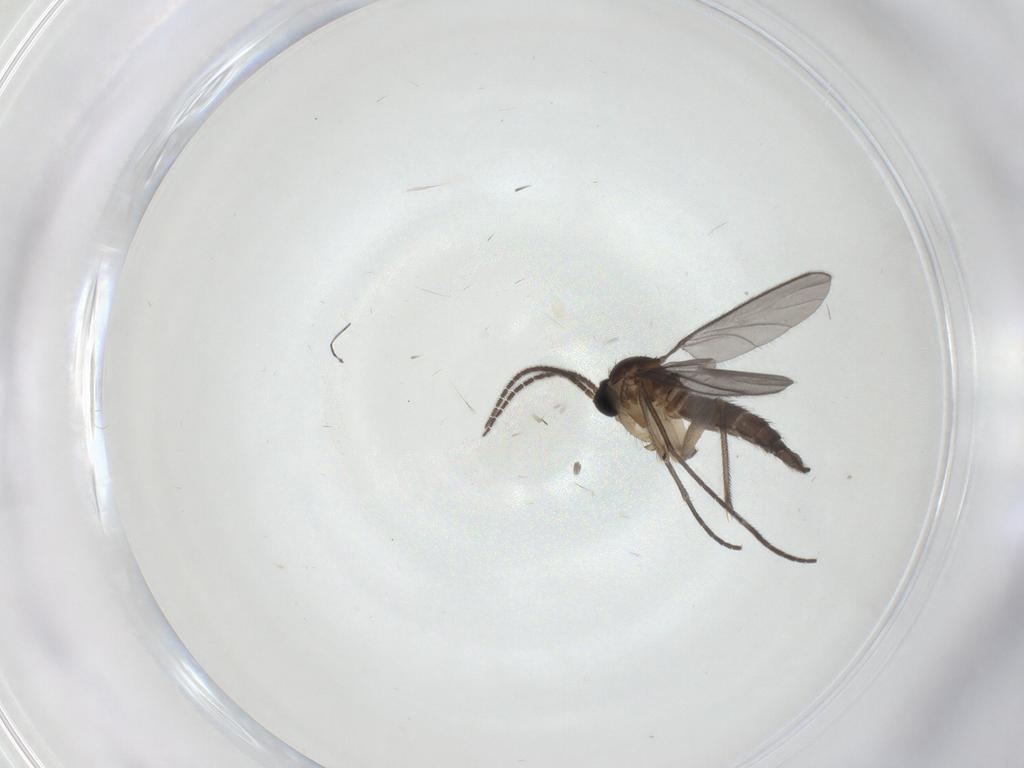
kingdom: Animalia
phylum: Arthropoda
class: Insecta
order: Diptera
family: Sciaridae
